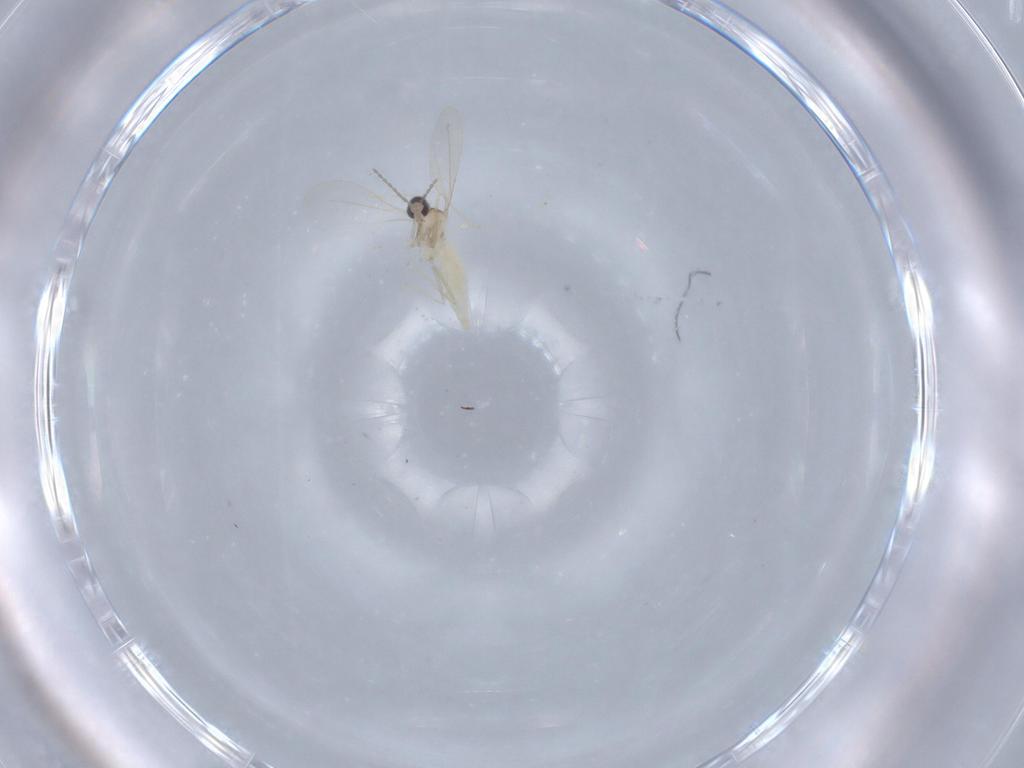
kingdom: Animalia
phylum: Arthropoda
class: Insecta
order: Diptera
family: Cecidomyiidae
